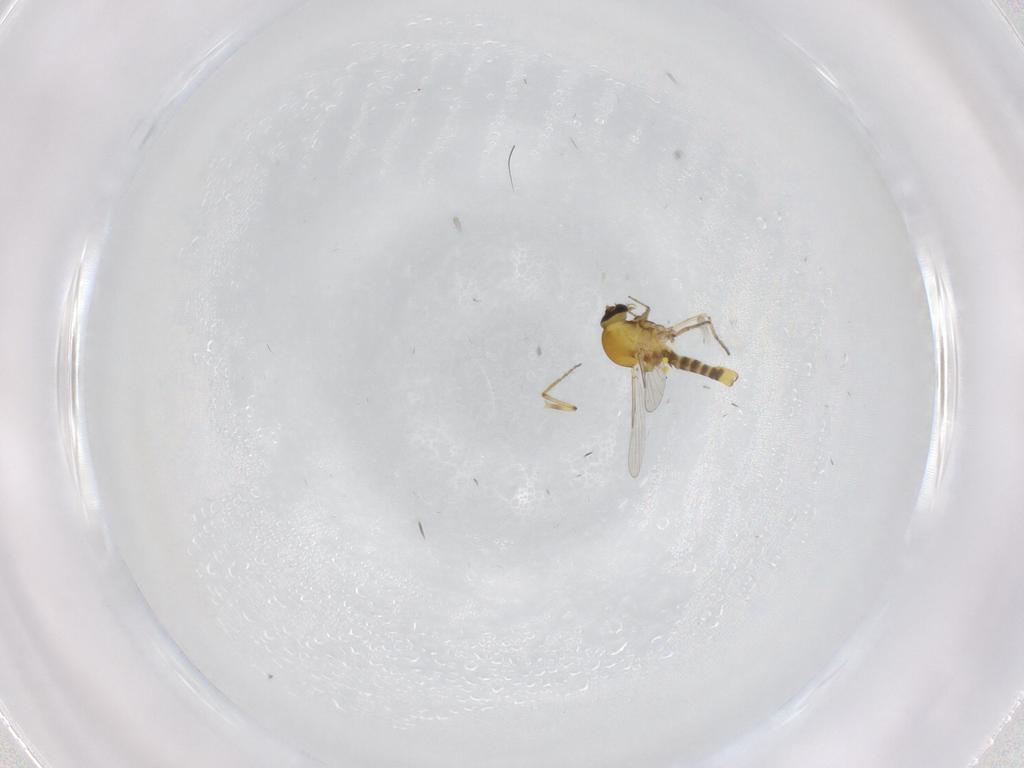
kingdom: Animalia
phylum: Arthropoda
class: Insecta
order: Diptera
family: Ceratopogonidae
